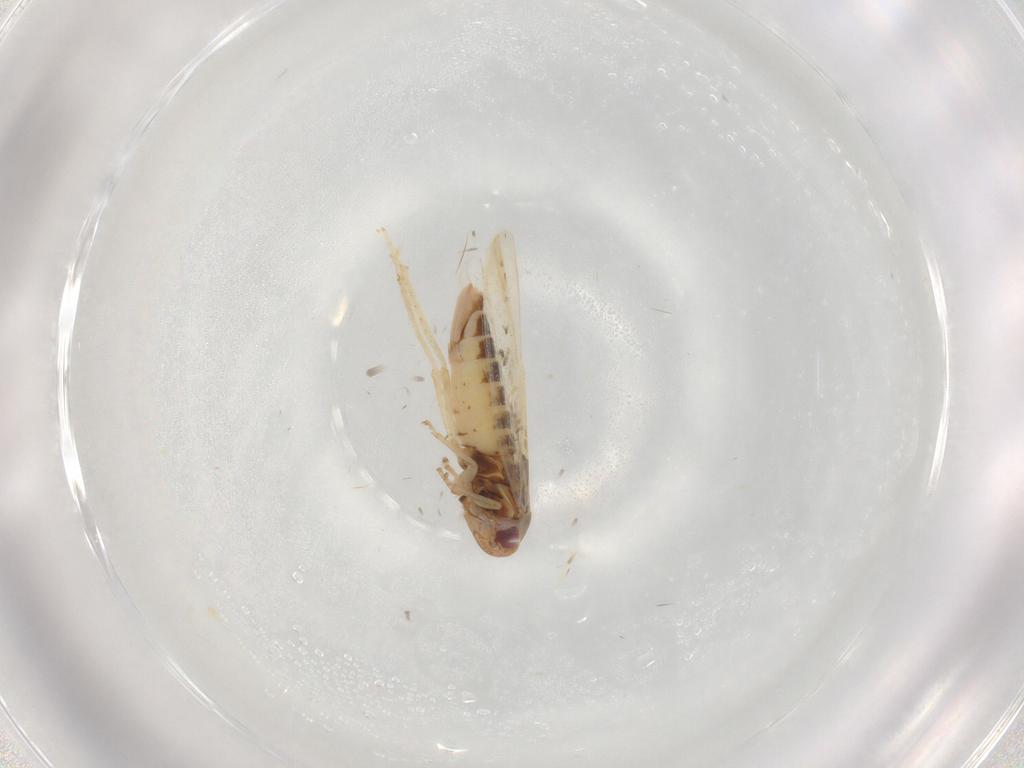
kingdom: Animalia
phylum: Arthropoda
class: Insecta
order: Hemiptera
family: Cicadellidae
